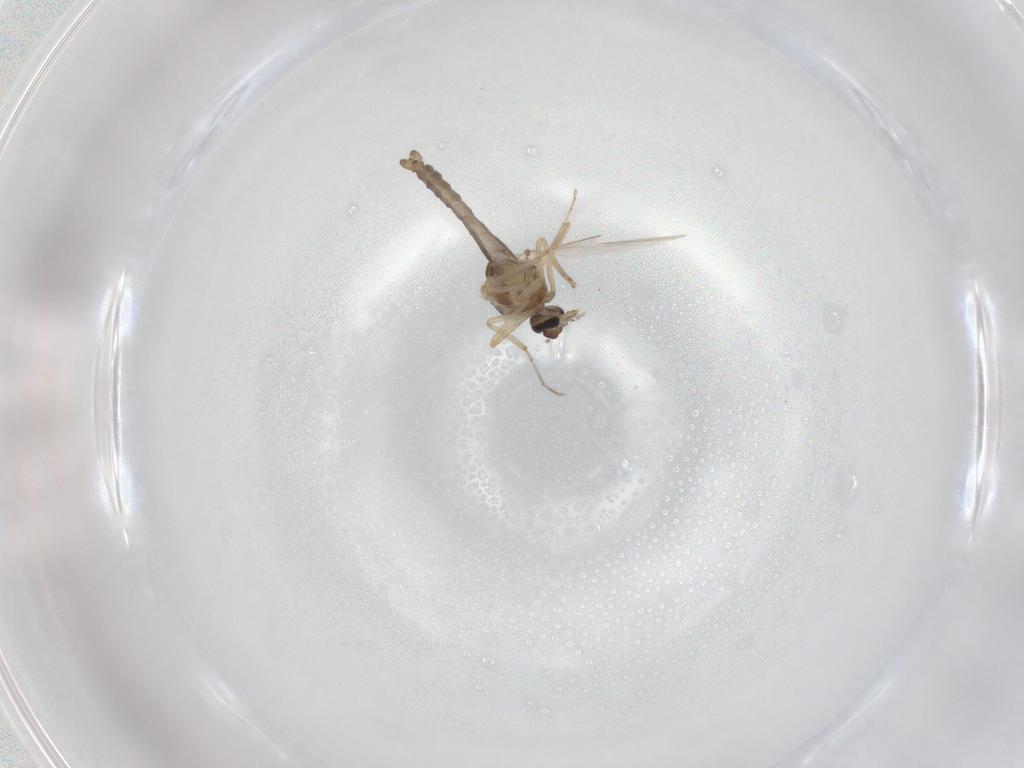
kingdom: Animalia
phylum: Arthropoda
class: Insecta
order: Diptera
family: Ceratopogonidae
